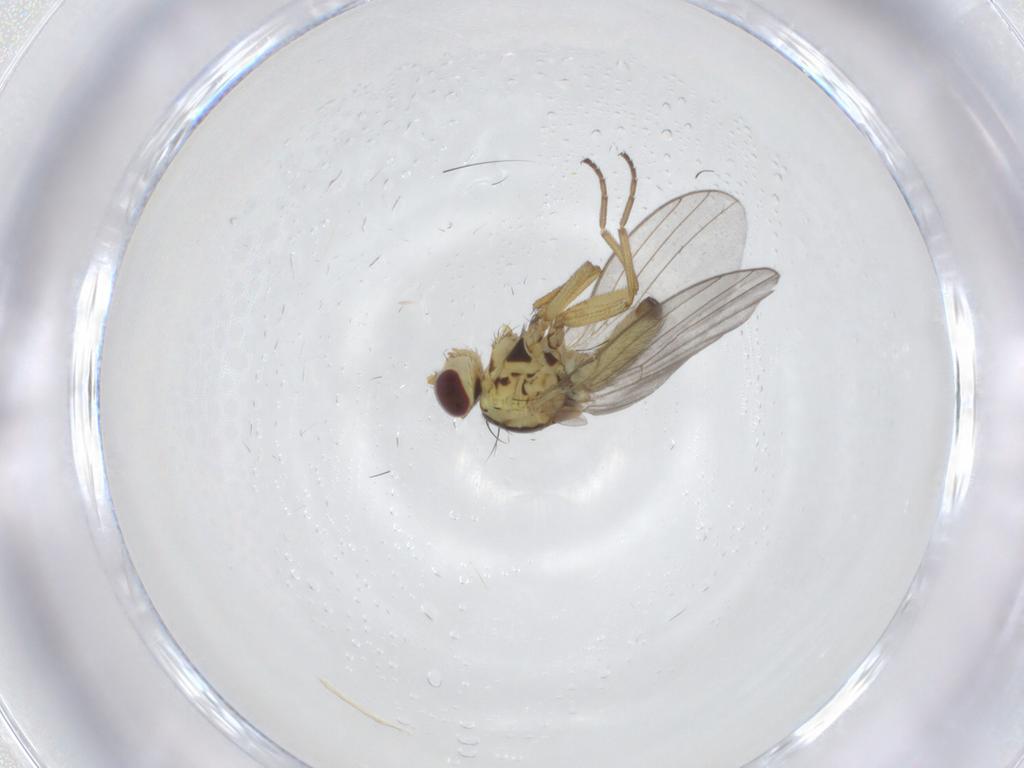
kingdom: Animalia
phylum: Arthropoda
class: Insecta
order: Diptera
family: Agromyzidae
